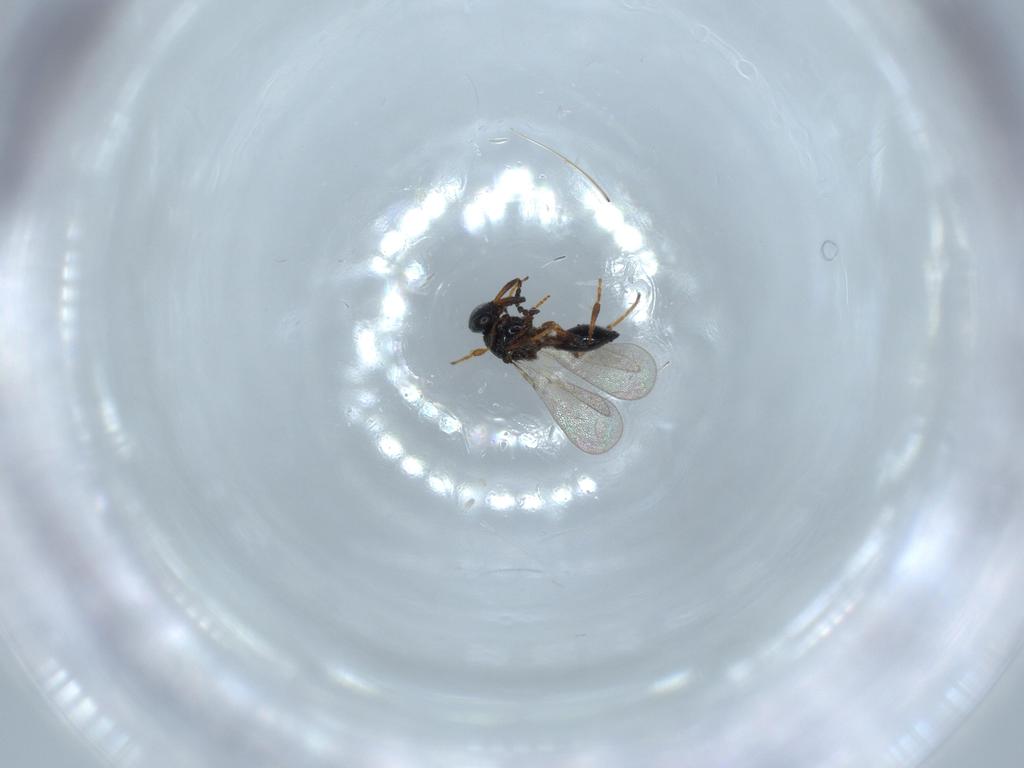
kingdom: Animalia
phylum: Arthropoda
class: Insecta
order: Hymenoptera
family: Platygastridae
